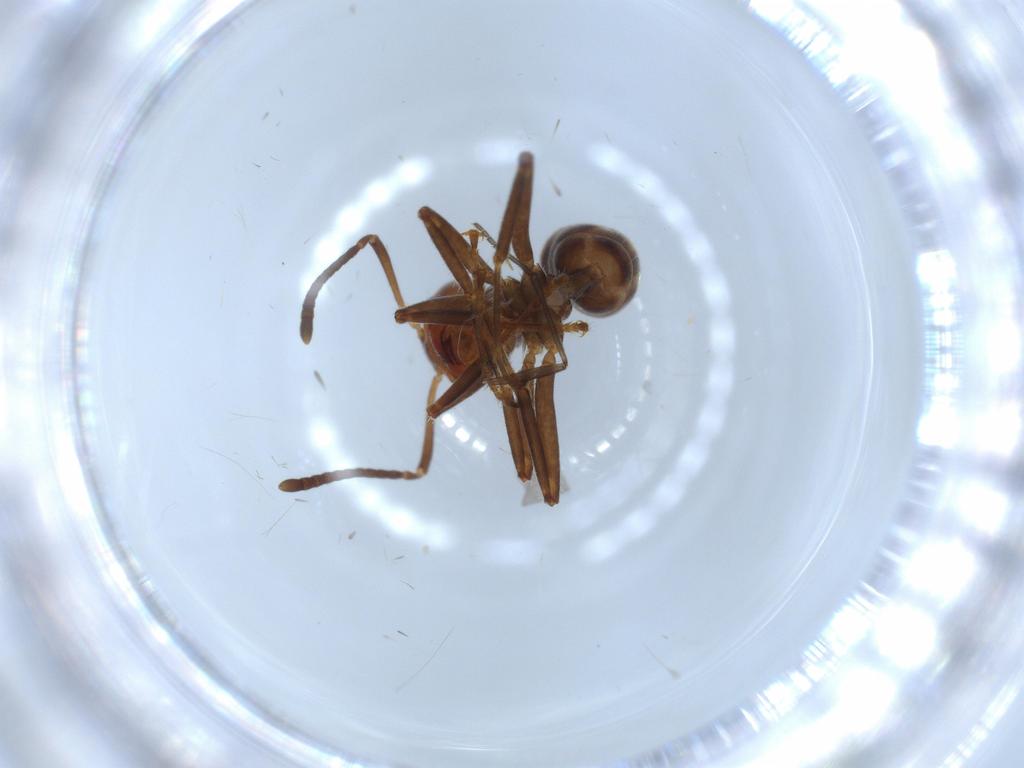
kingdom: Animalia
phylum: Arthropoda
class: Insecta
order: Hymenoptera
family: Formicidae
